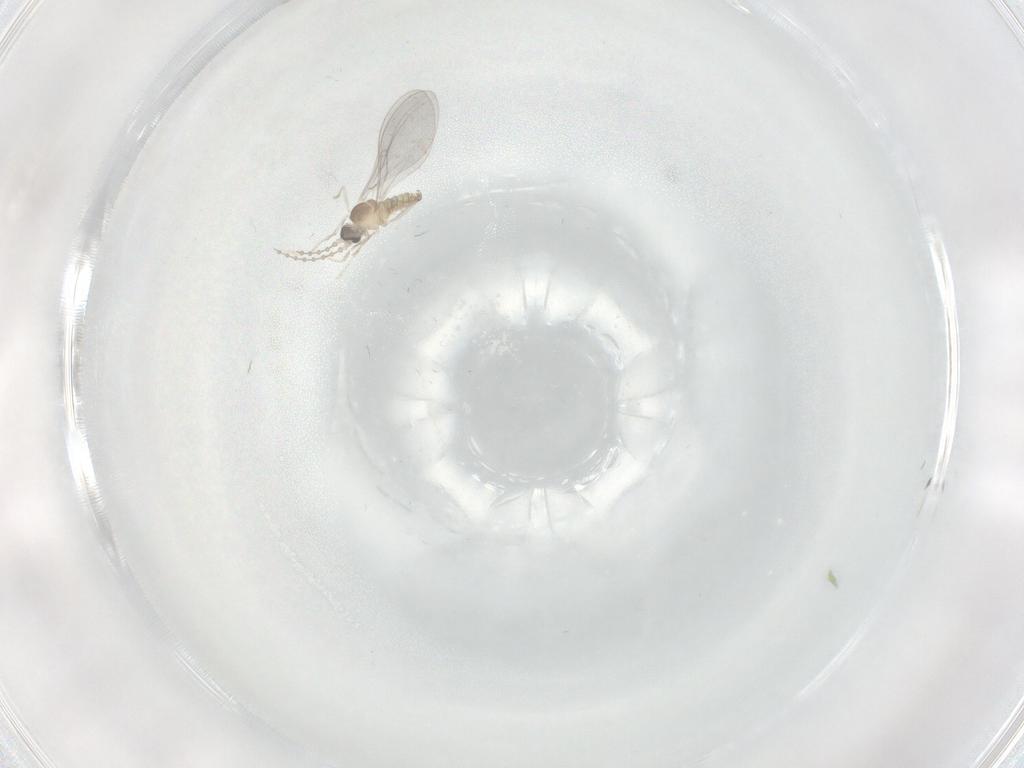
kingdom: Animalia
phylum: Arthropoda
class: Insecta
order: Diptera
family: Cecidomyiidae
